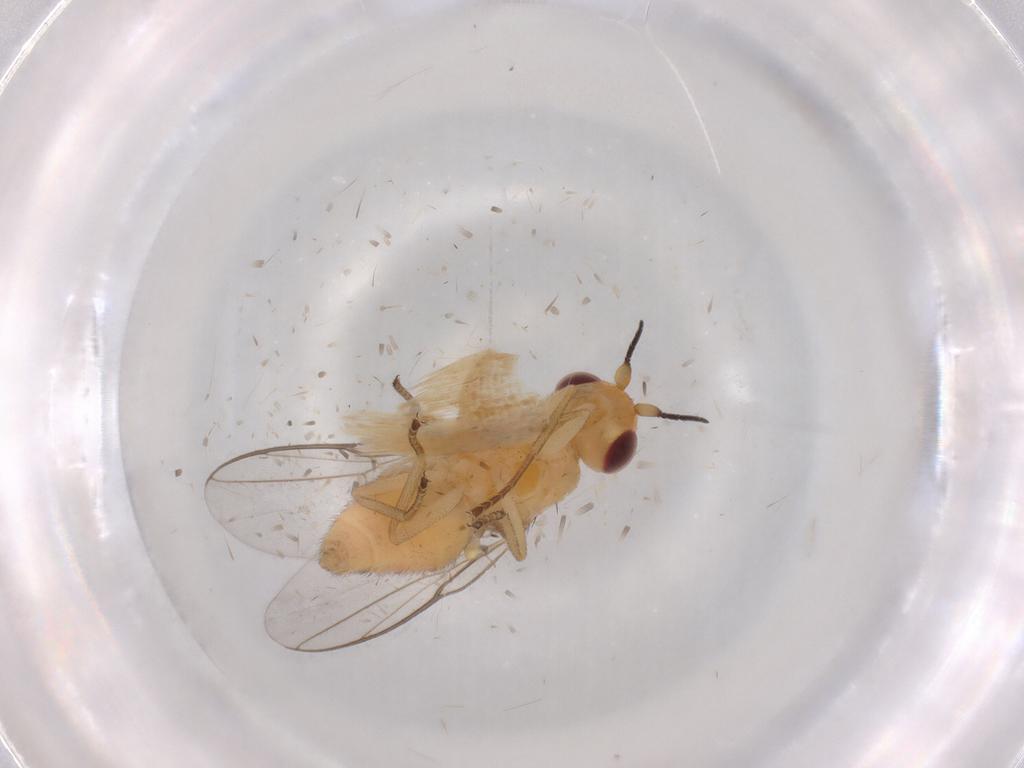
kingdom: Animalia
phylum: Arthropoda
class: Insecta
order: Diptera
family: Chloropidae
